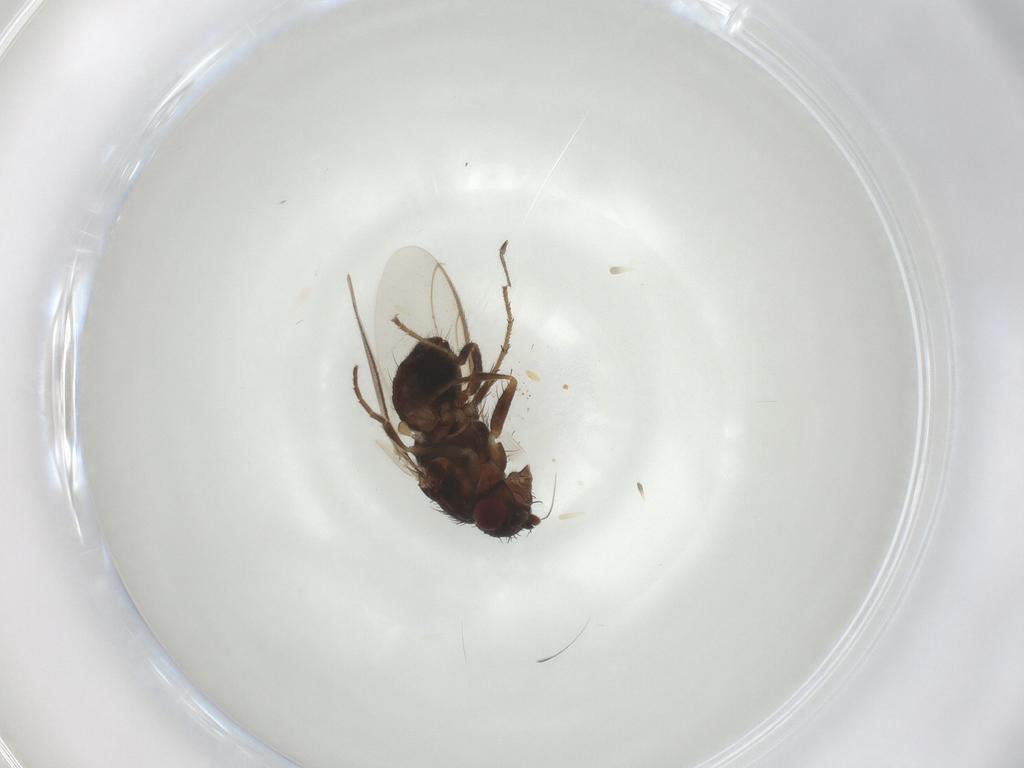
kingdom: Animalia
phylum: Arthropoda
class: Insecta
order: Diptera
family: Sphaeroceridae
